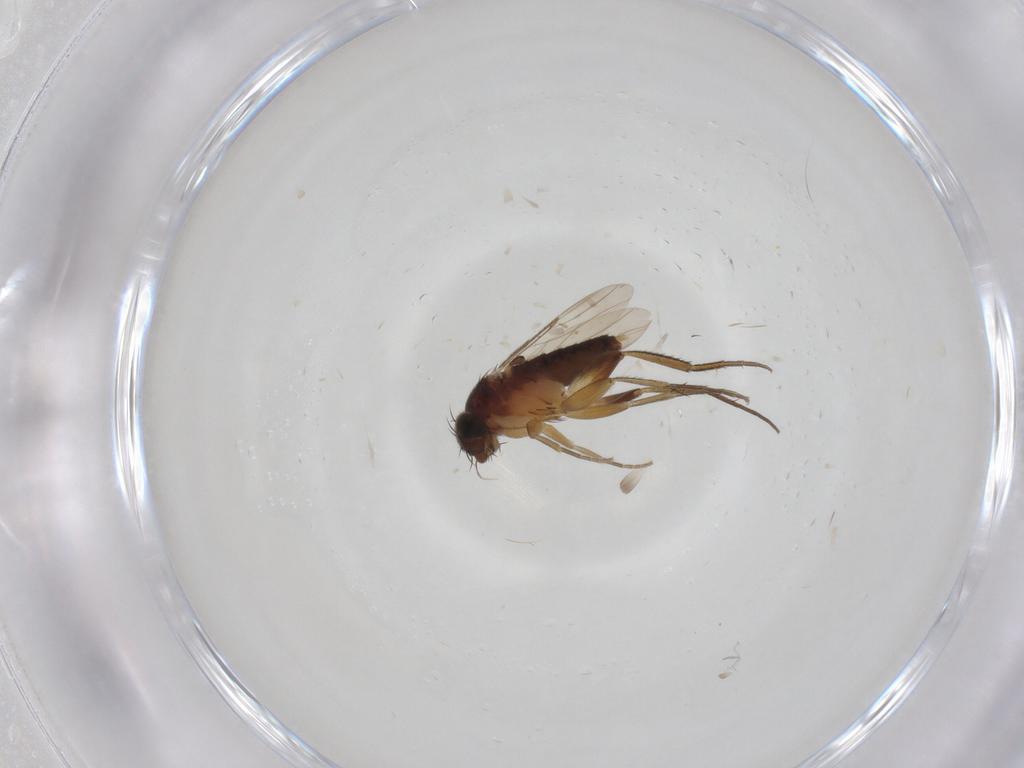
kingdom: Animalia
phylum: Arthropoda
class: Insecta
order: Diptera
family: Phoridae
